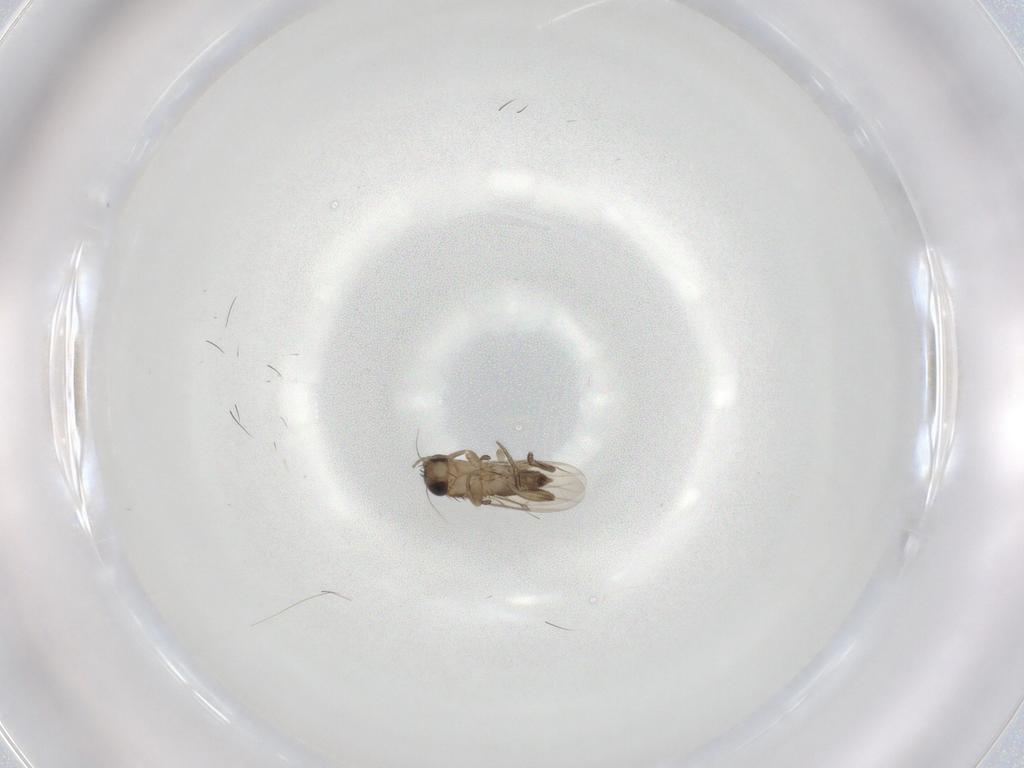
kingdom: Animalia
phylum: Arthropoda
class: Insecta
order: Diptera
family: Phoridae
